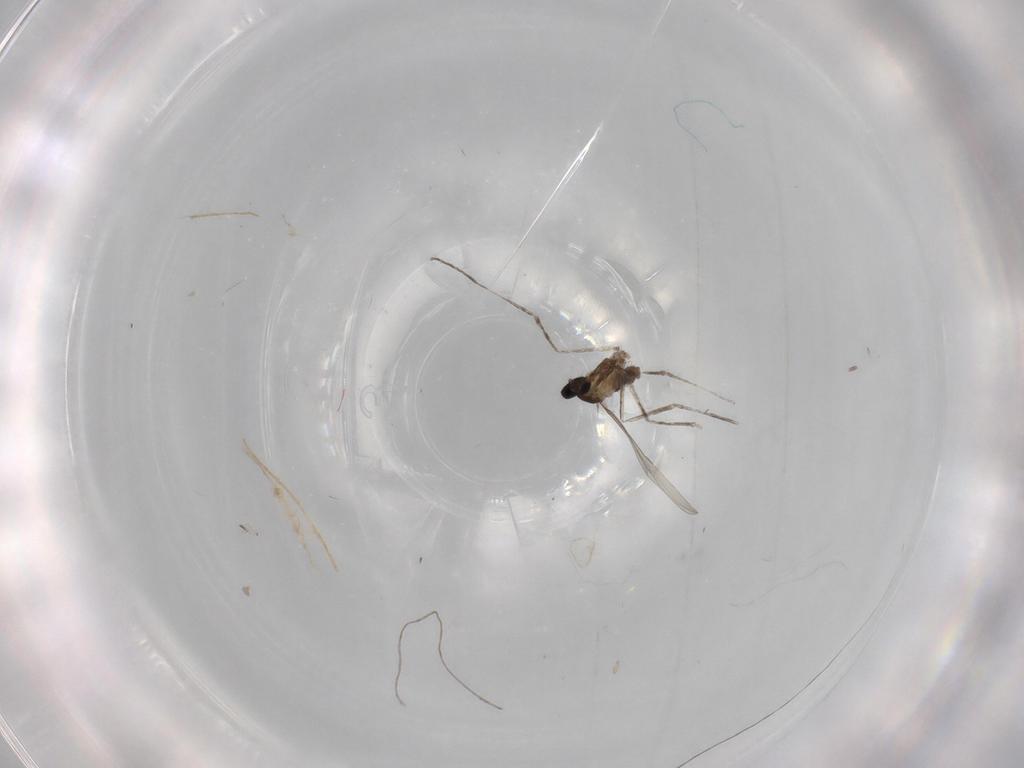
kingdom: Animalia
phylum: Arthropoda
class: Insecta
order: Diptera
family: Cecidomyiidae
